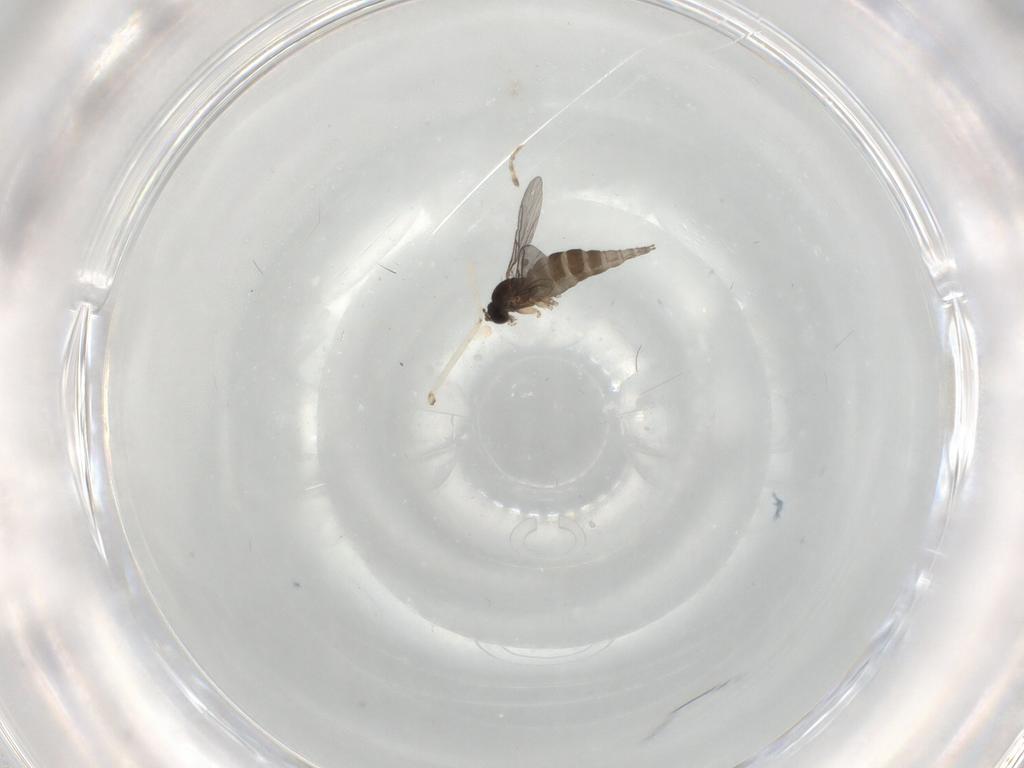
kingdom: Animalia
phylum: Arthropoda
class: Insecta
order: Diptera
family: Sciaridae
